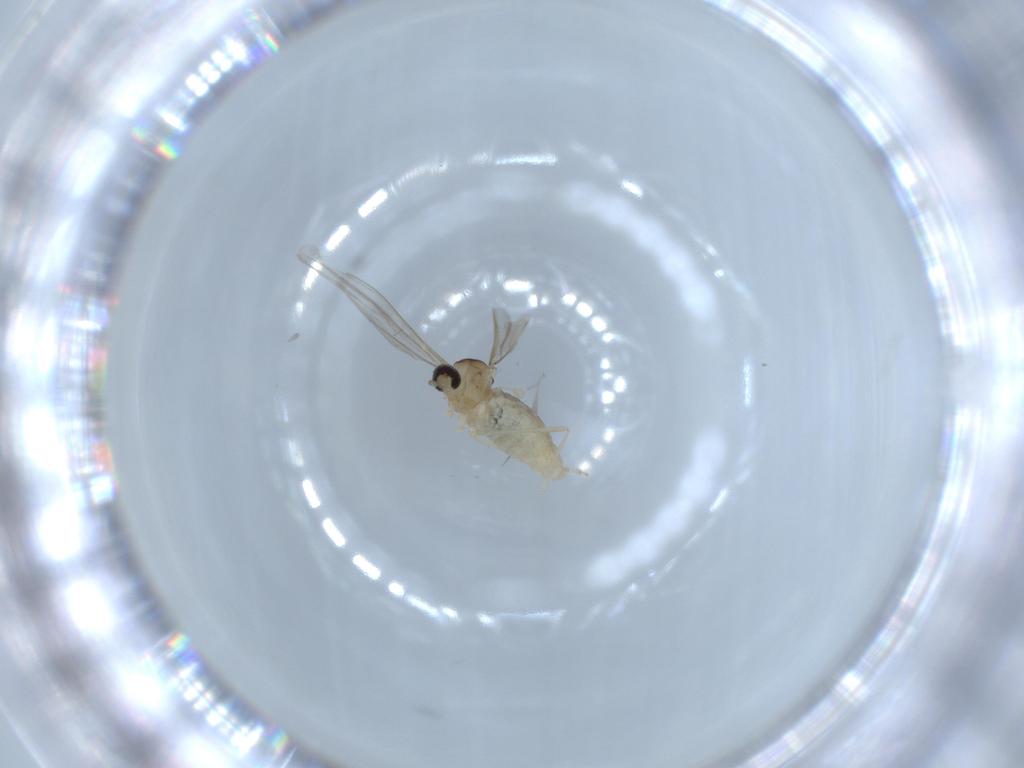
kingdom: Animalia
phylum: Arthropoda
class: Insecta
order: Diptera
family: Cecidomyiidae
